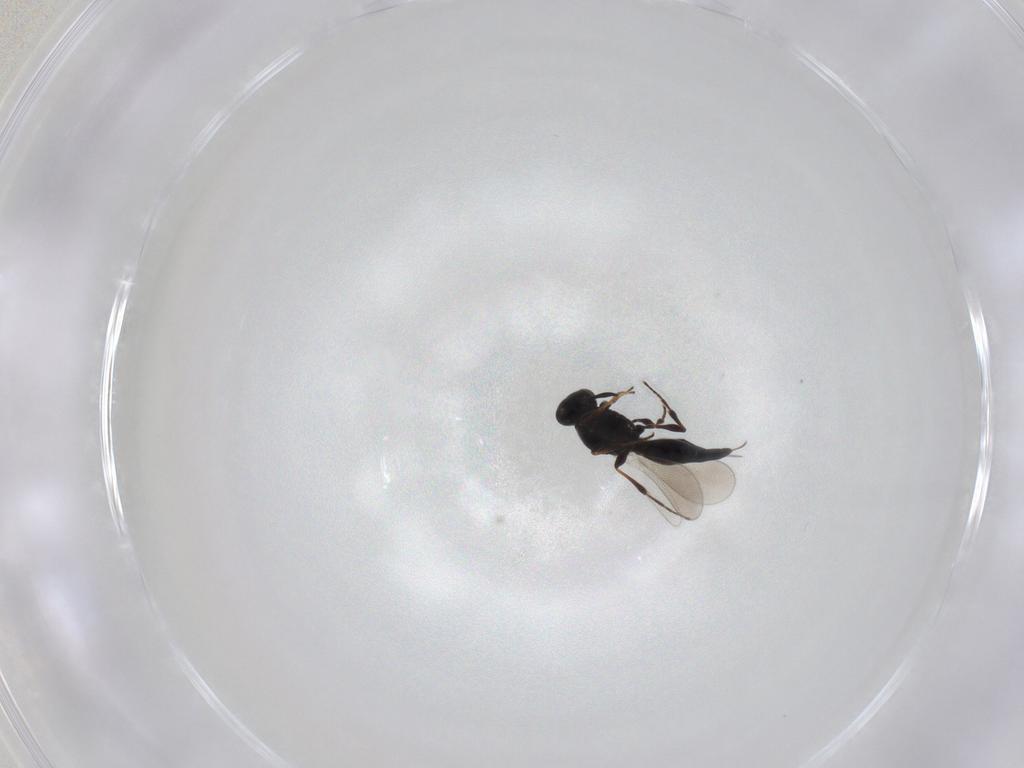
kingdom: Animalia
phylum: Arthropoda
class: Insecta
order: Hymenoptera
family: Platygastridae
